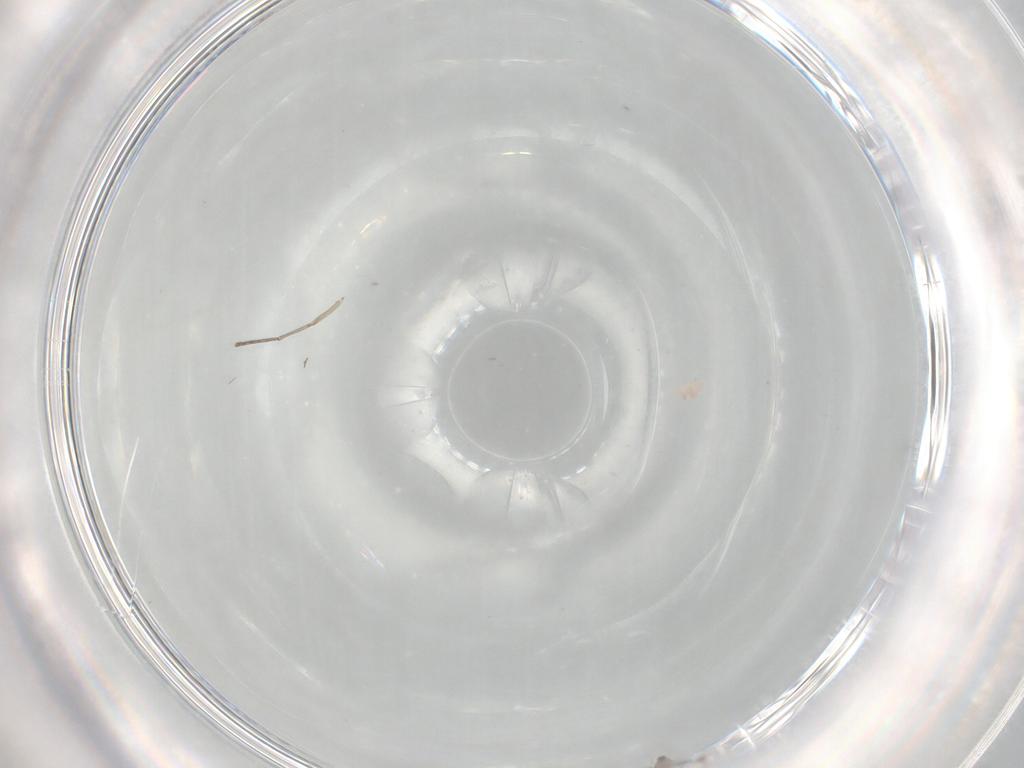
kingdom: Animalia
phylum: Arthropoda
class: Insecta
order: Diptera
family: Cecidomyiidae
